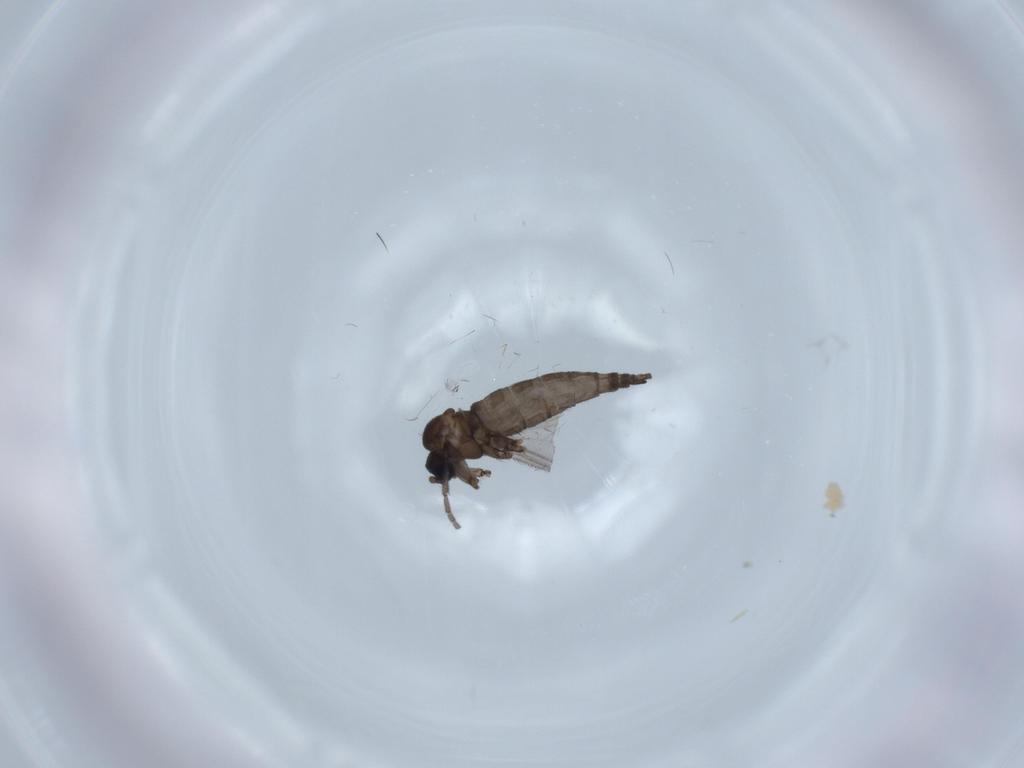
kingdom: Animalia
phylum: Arthropoda
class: Insecta
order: Diptera
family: Sciaridae
